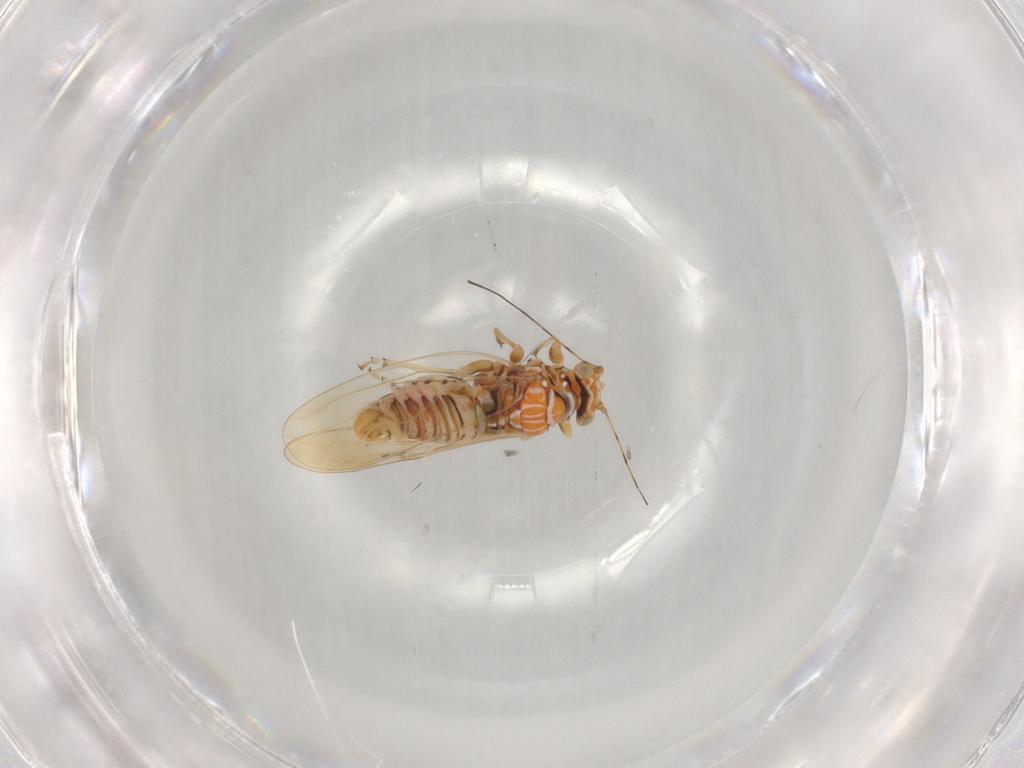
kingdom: Animalia
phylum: Arthropoda
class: Insecta
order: Hemiptera
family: Psyllidae
